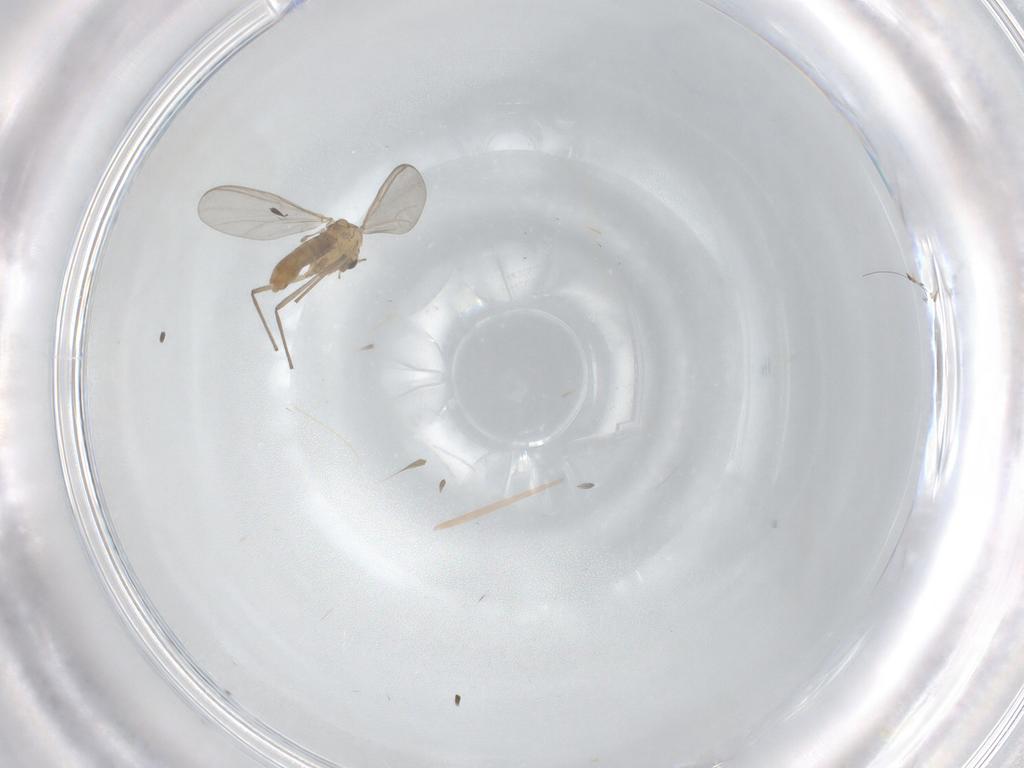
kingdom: Animalia
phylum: Arthropoda
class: Insecta
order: Diptera
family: Chironomidae
